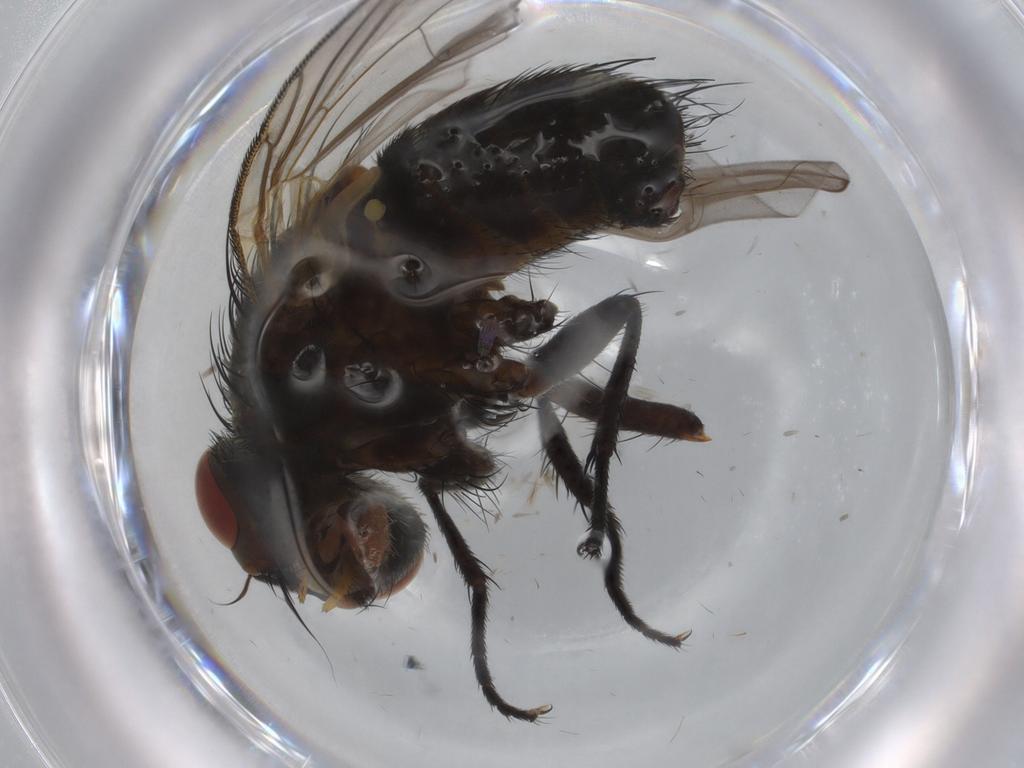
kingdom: Animalia
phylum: Arthropoda
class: Insecta
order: Diptera
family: Tachinidae
